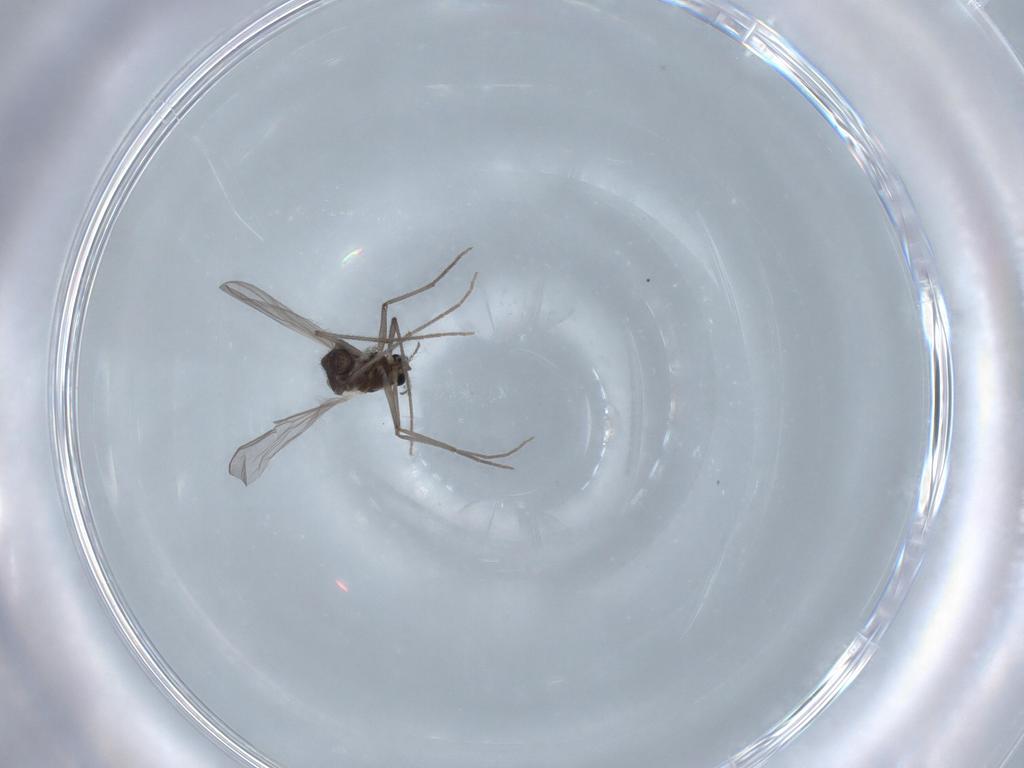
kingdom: Animalia
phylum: Arthropoda
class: Insecta
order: Diptera
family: Chironomidae
